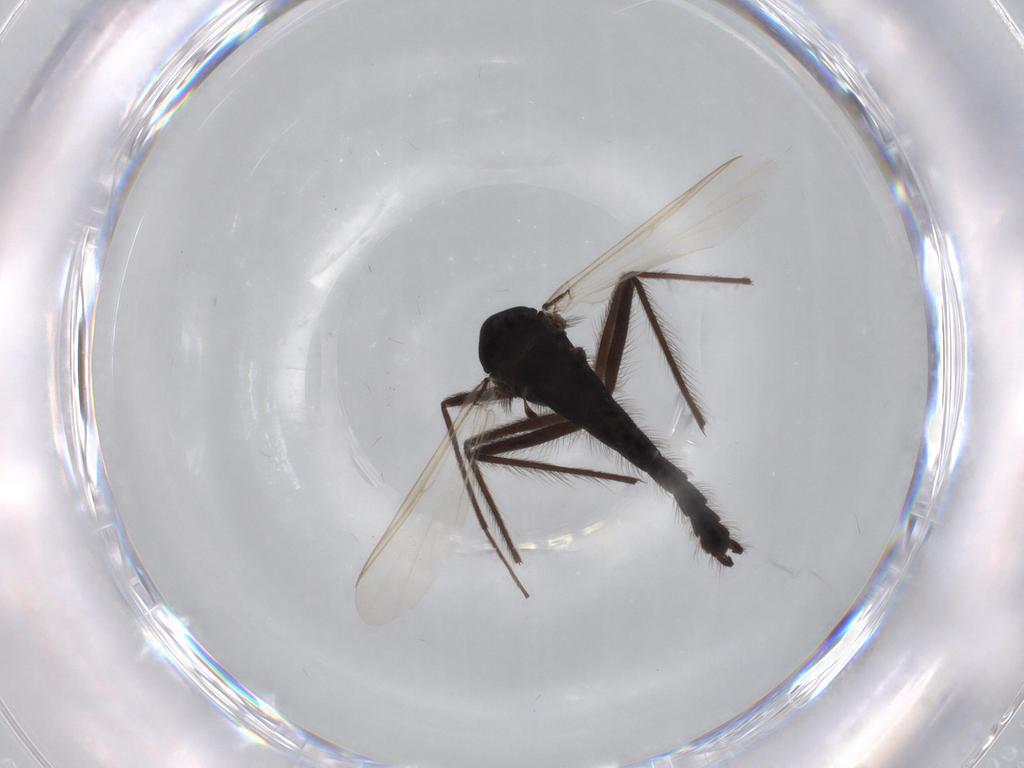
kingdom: Animalia
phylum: Arthropoda
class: Insecta
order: Diptera
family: Hybotidae
